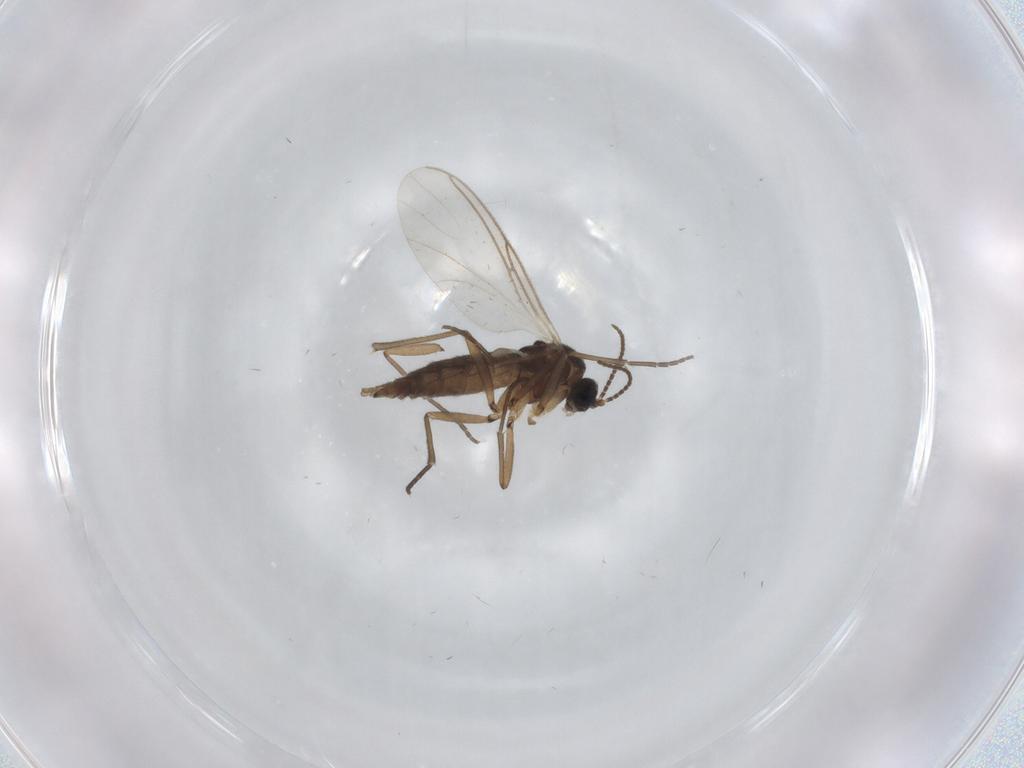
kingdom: Animalia
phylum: Arthropoda
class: Insecta
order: Diptera
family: Sciaridae
